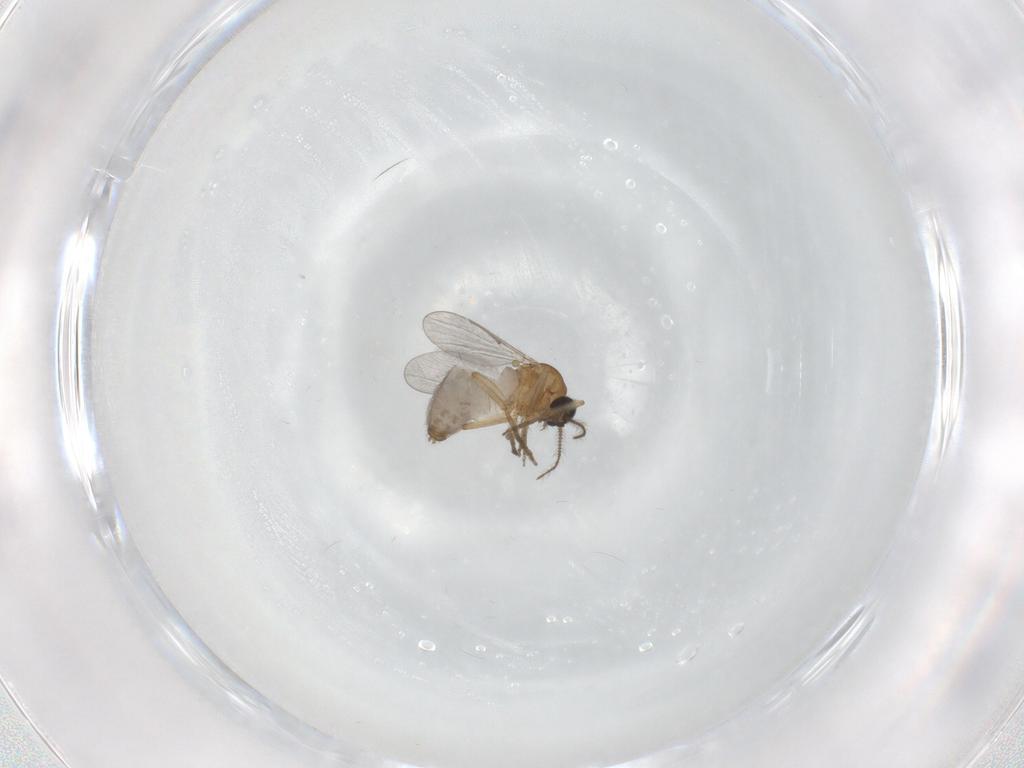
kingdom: Animalia
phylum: Arthropoda
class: Insecta
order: Diptera
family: Ceratopogonidae
